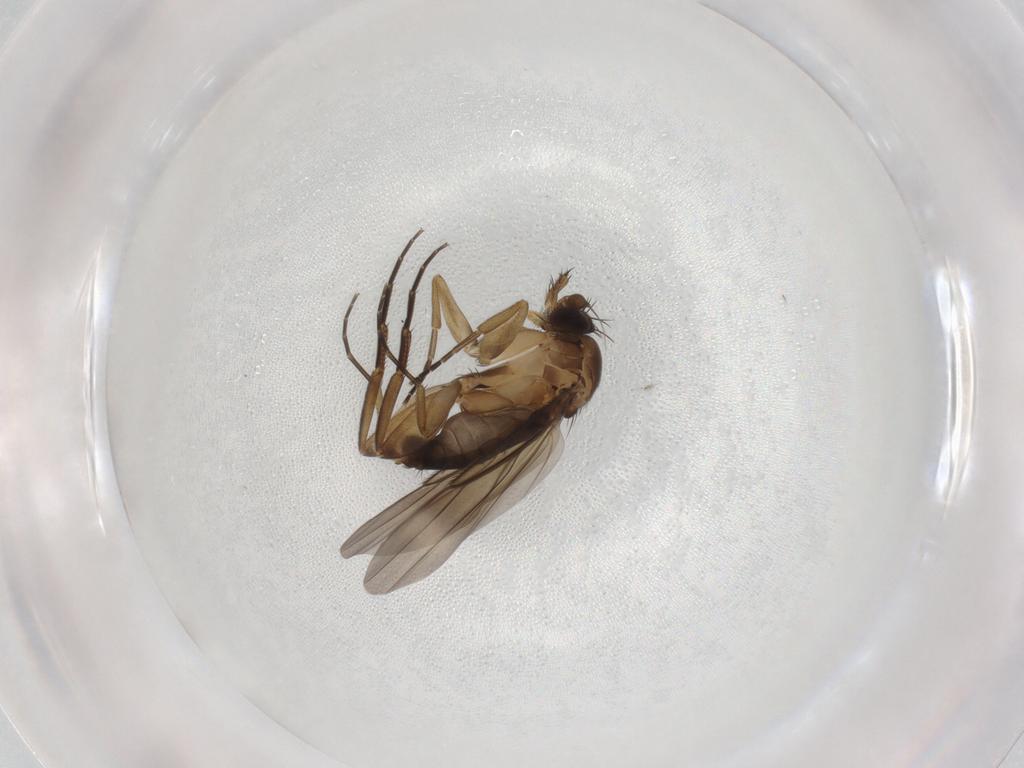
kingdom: Animalia
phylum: Arthropoda
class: Insecta
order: Diptera
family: Phoridae
